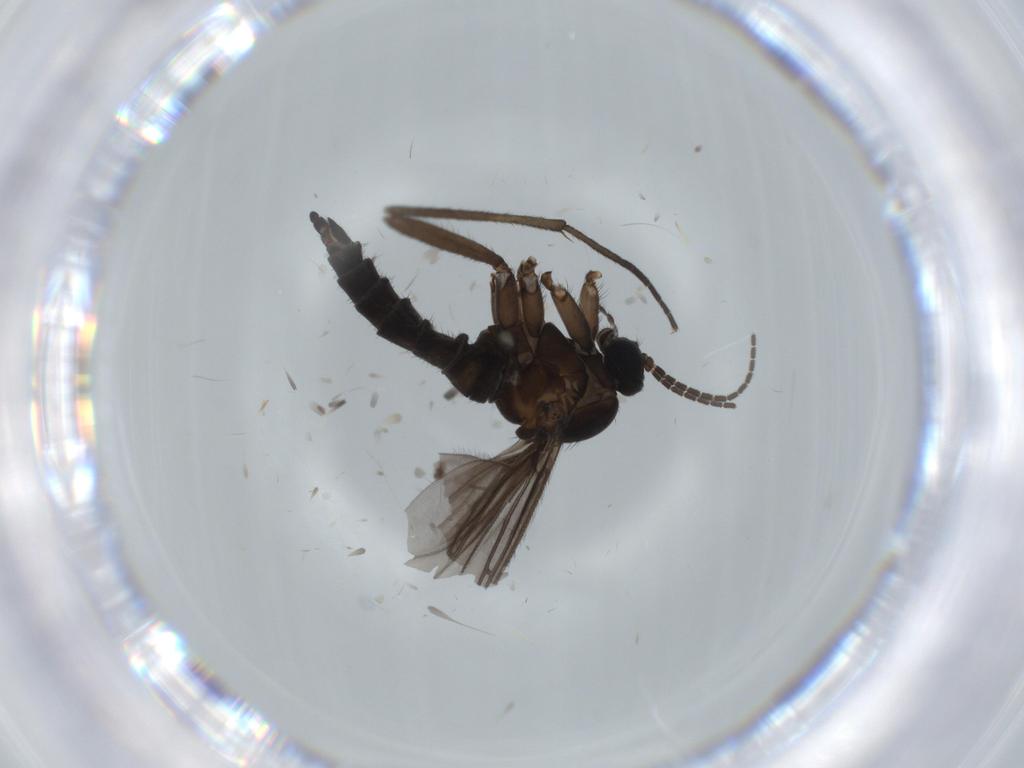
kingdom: Animalia
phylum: Arthropoda
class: Insecta
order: Diptera
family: Sciaridae
